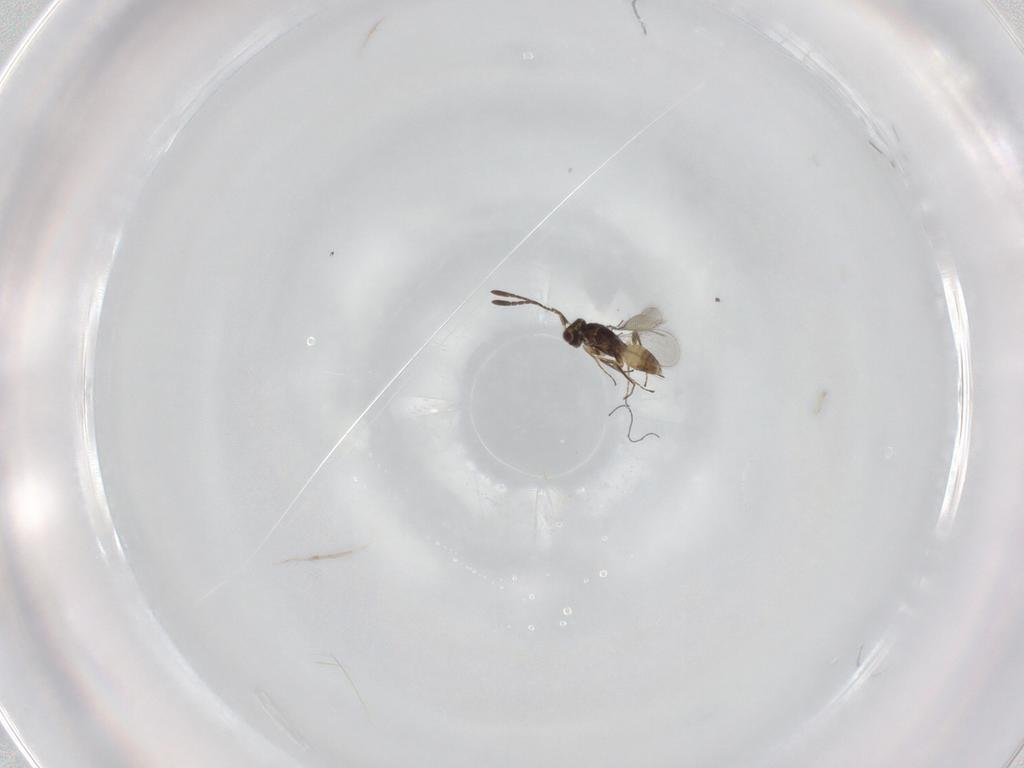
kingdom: Animalia
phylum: Arthropoda
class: Insecta
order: Hymenoptera
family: Mymaridae
